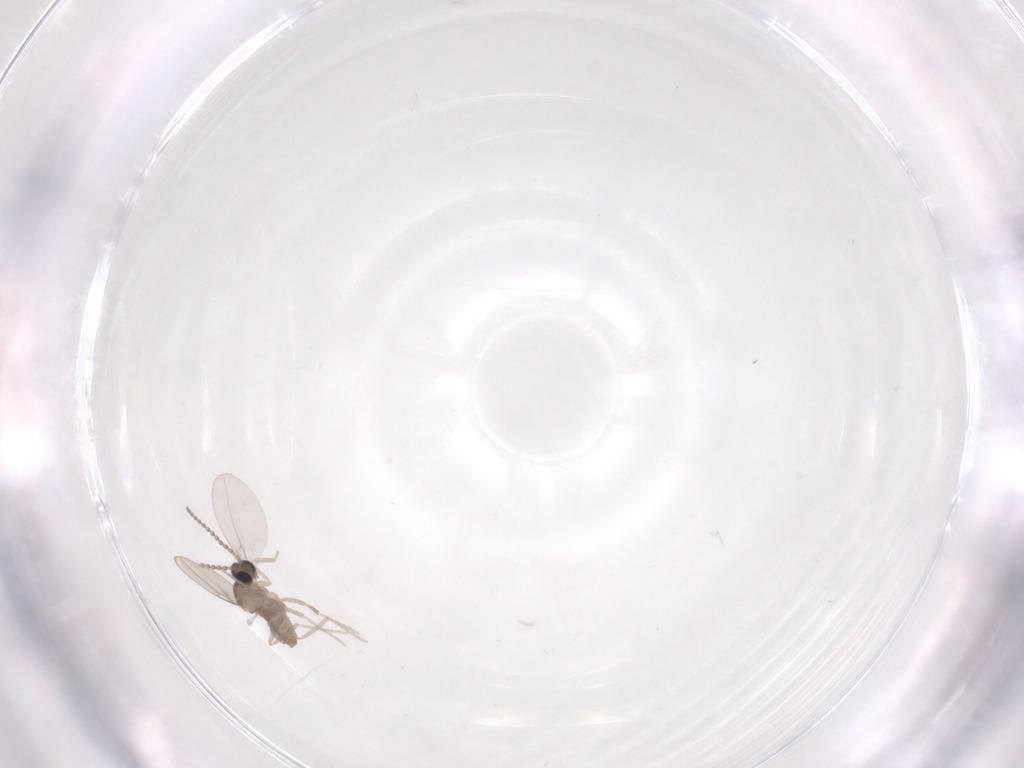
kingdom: Animalia
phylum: Arthropoda
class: Insecta
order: Diptera
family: Cecidomyiidae
